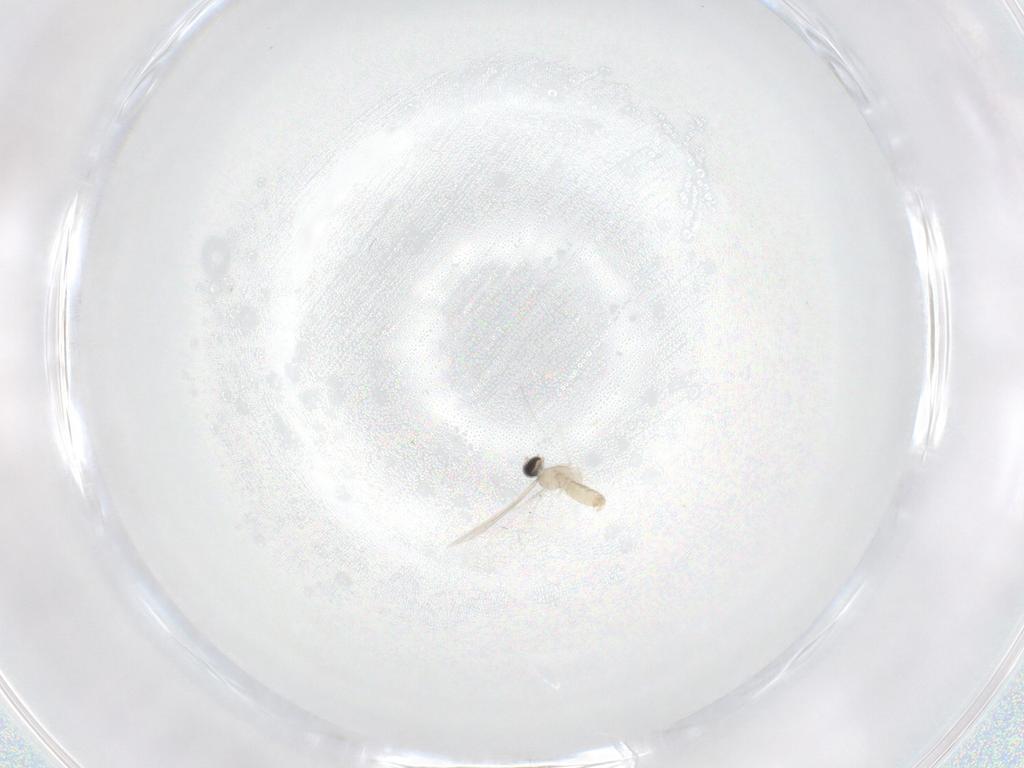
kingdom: Animalia
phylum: Arthropoda
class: Insecta
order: Diptera
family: Cecidomyiidae
